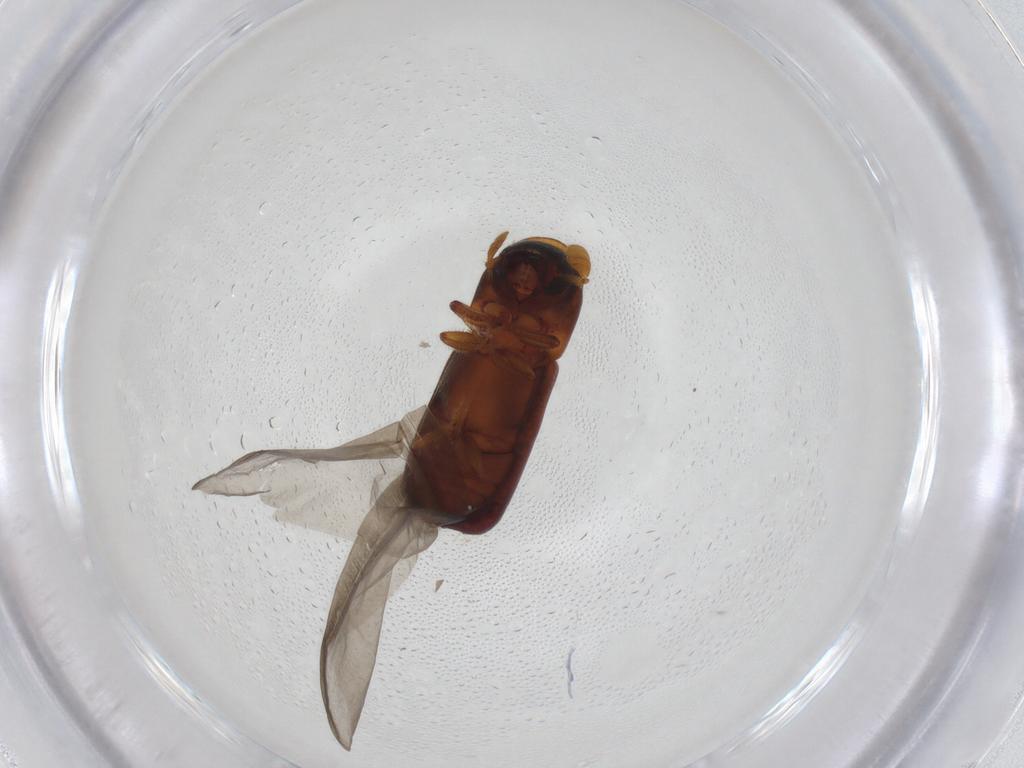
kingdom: Animalia
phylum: Arthropoda
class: Insecta
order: Coleoptera
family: Curculionidae
